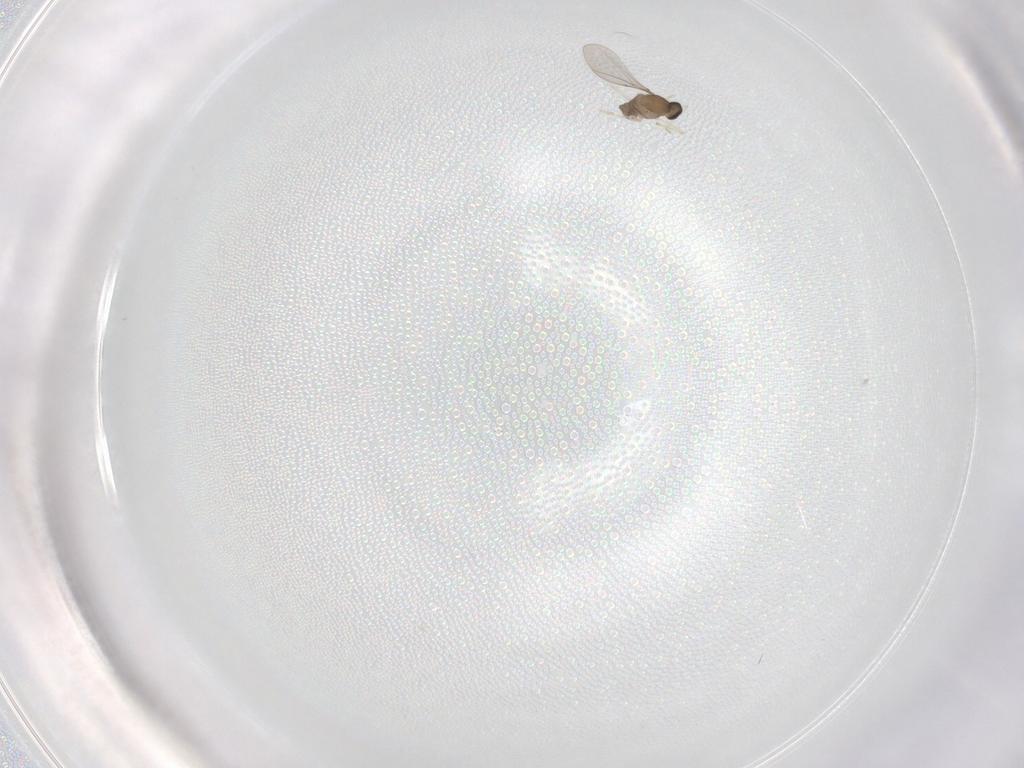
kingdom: Animalia
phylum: Arthropoda
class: Insecta
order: Diptera
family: Cecidomyiidae
